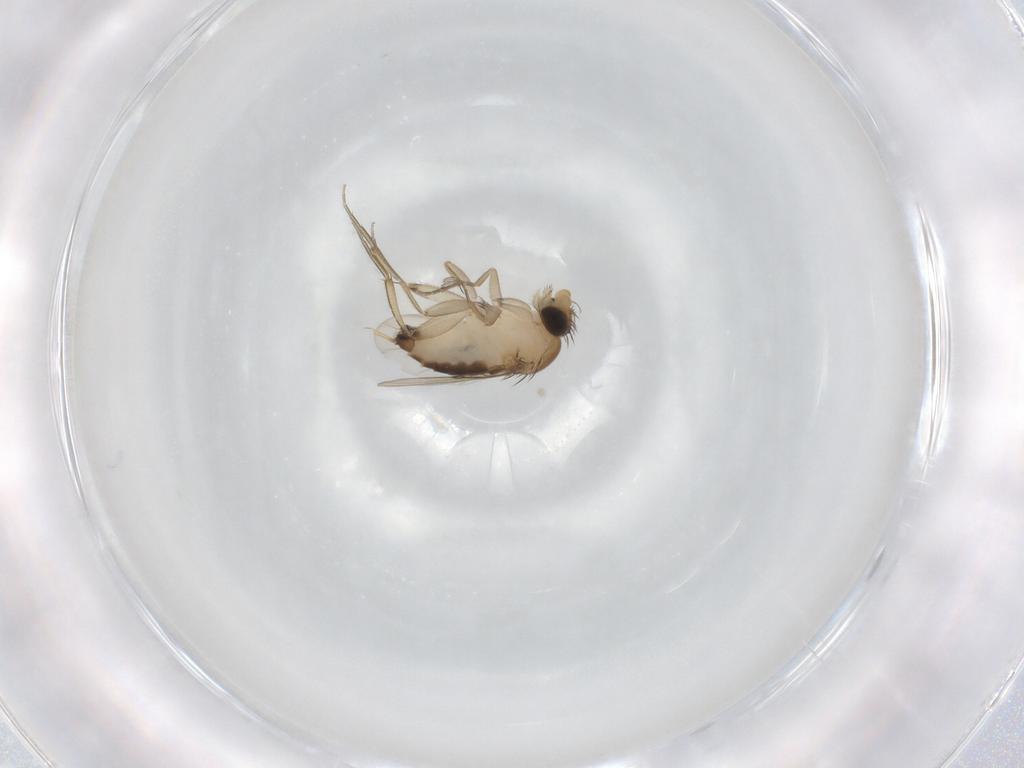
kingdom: Animalia
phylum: Arthropoda
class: Insecta
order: Diptera
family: Phoridae
